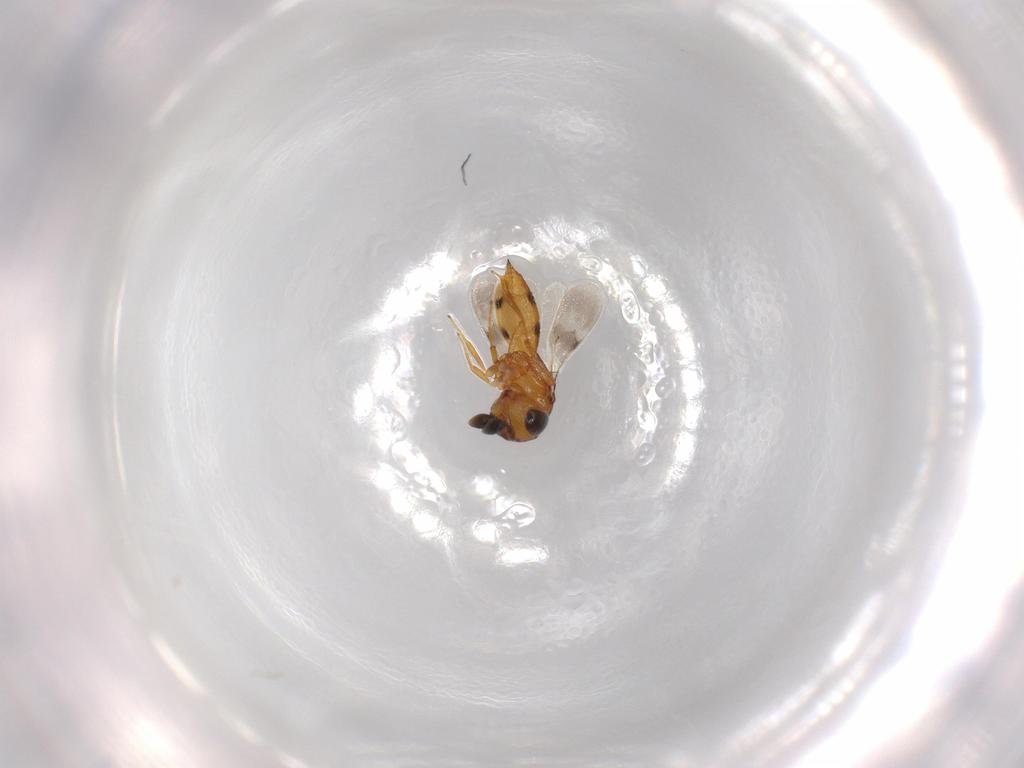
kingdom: Animalia
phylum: Arthropoda
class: Insecta
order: Hymenoptera
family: Scelionidae
